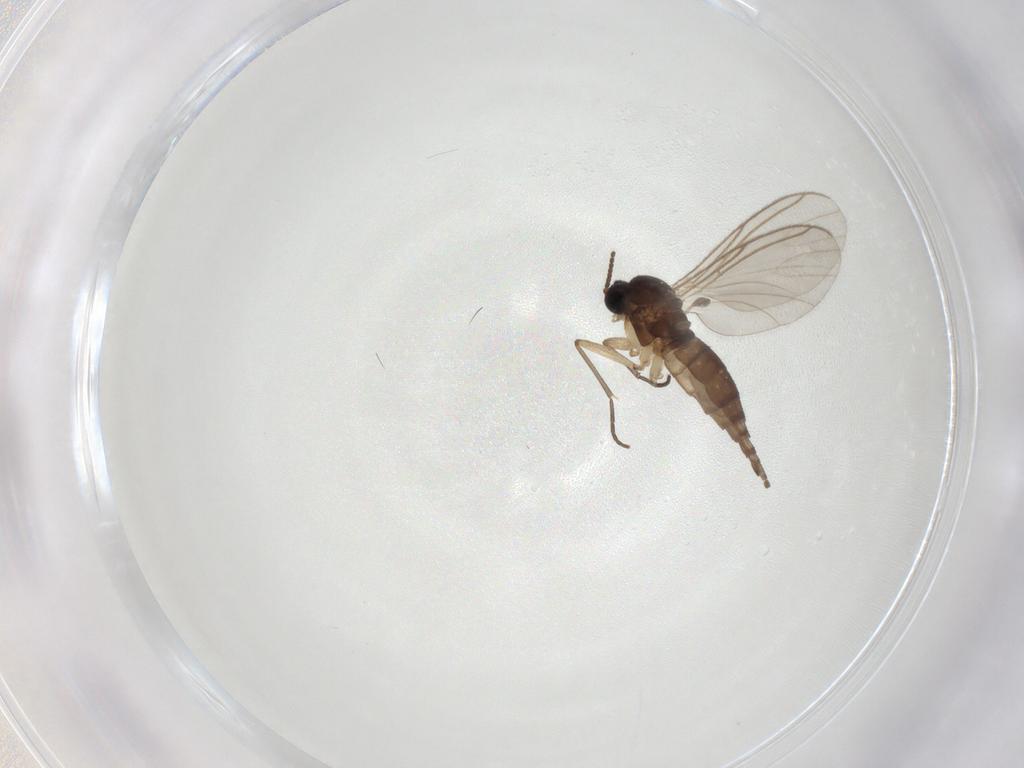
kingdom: Animalia
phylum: Arthropoda
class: Insecta
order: Diptera
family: Sciaridae
